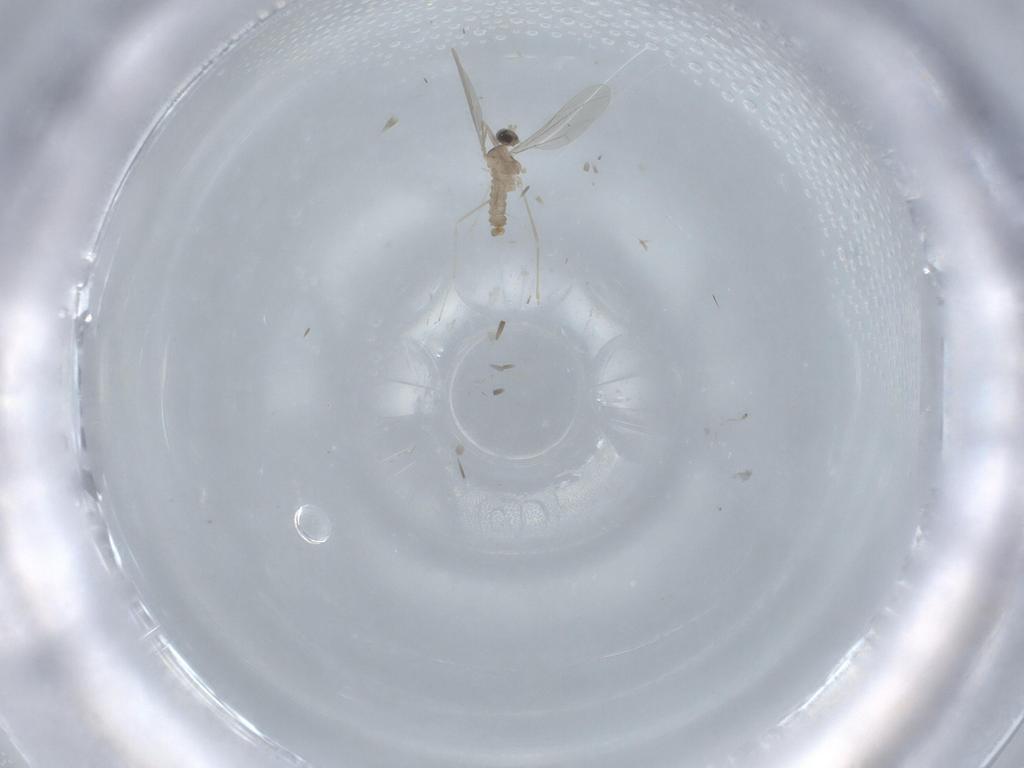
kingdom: Animalia
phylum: Arthropoda
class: Insecta
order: Diptera
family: Cecidomyiidae
